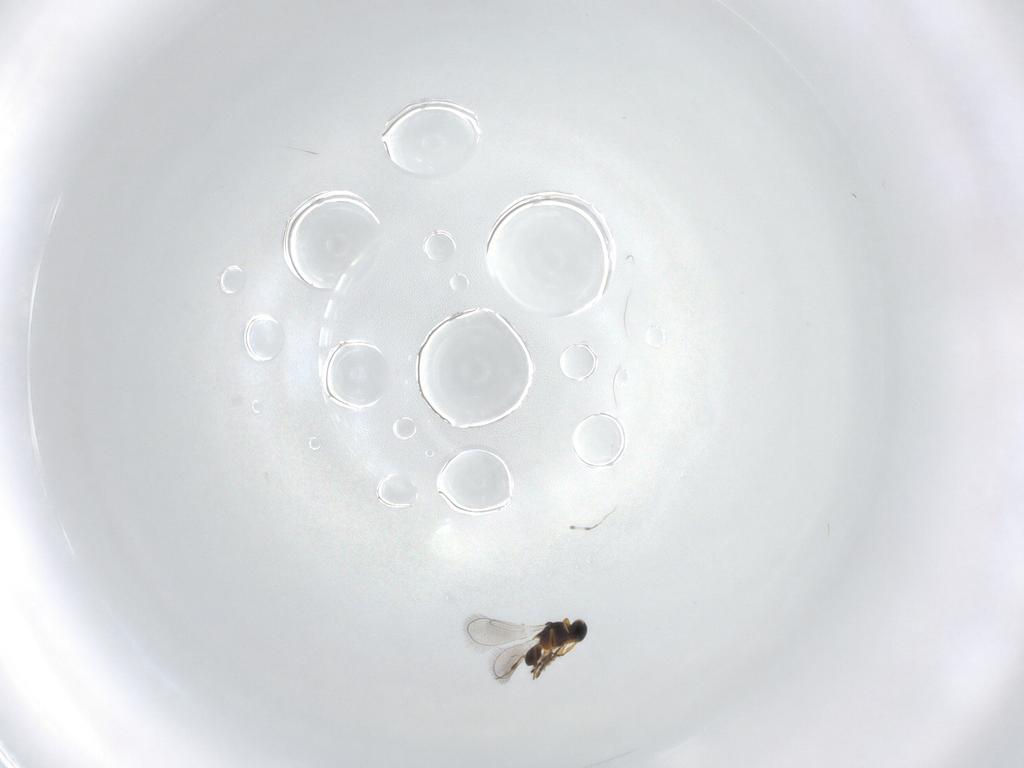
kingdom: Animalia
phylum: Arthropoda
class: Insecta
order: Hymenoptera
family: Platygastridae
